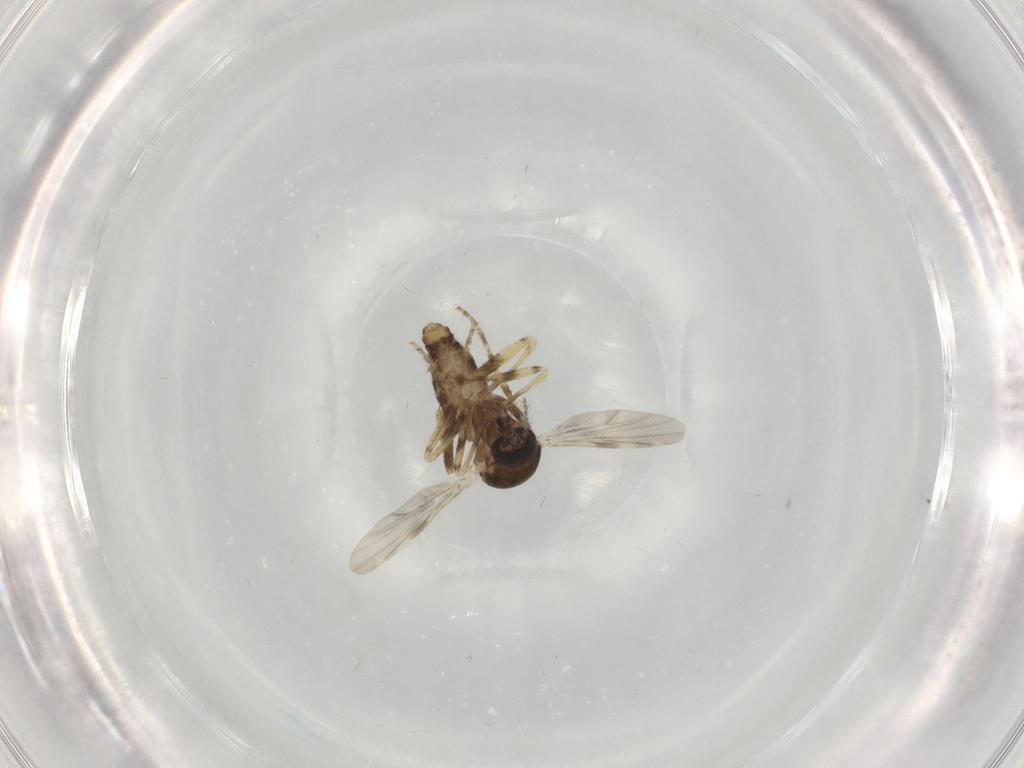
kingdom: Animalia
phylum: Arthropoda
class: Insecta
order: Diptera
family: Ceratopogonidae
